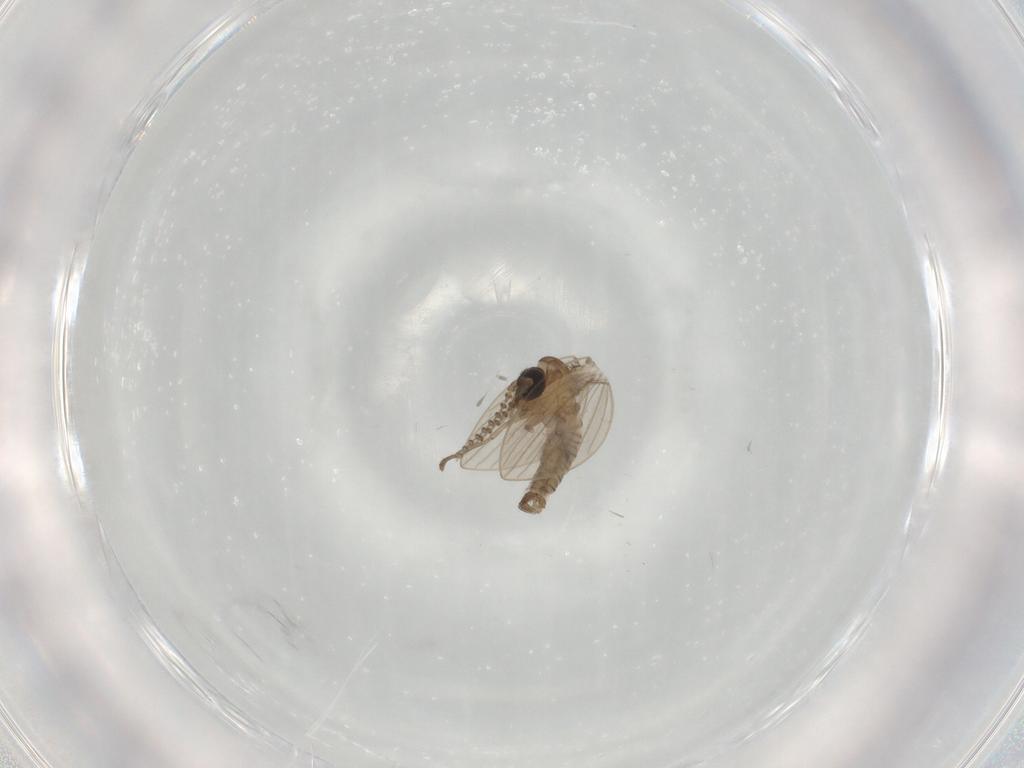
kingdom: Animalia
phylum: Arthropoda
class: Insecta
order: Diptera
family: Psychodidae
